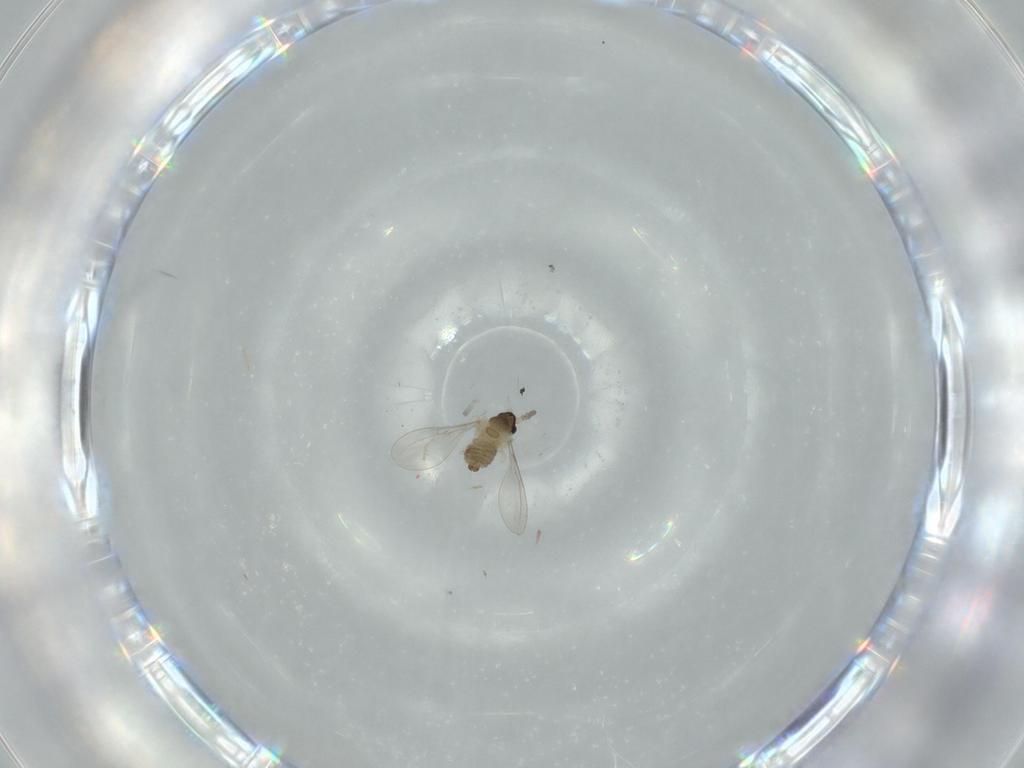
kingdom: Animalia
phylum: Arthropoda
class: Insecta
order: Diptera
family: Cecidomyiidae
